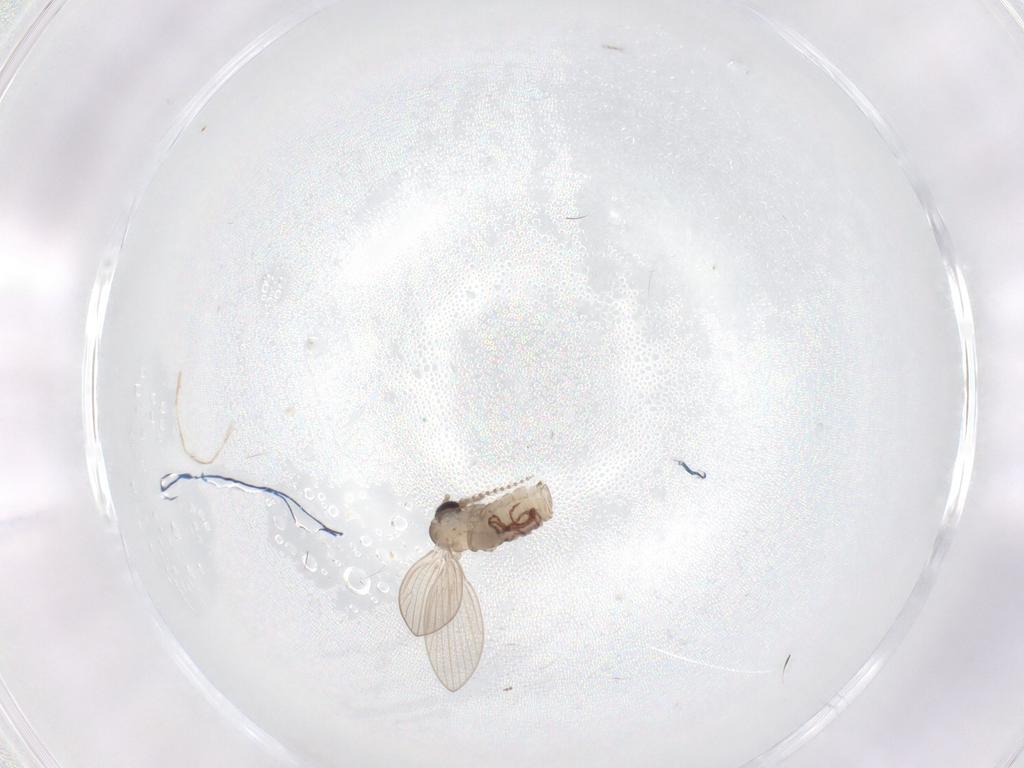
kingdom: Animalia
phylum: Arthropoda
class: Insecta
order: Diptera
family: Psychodidae
